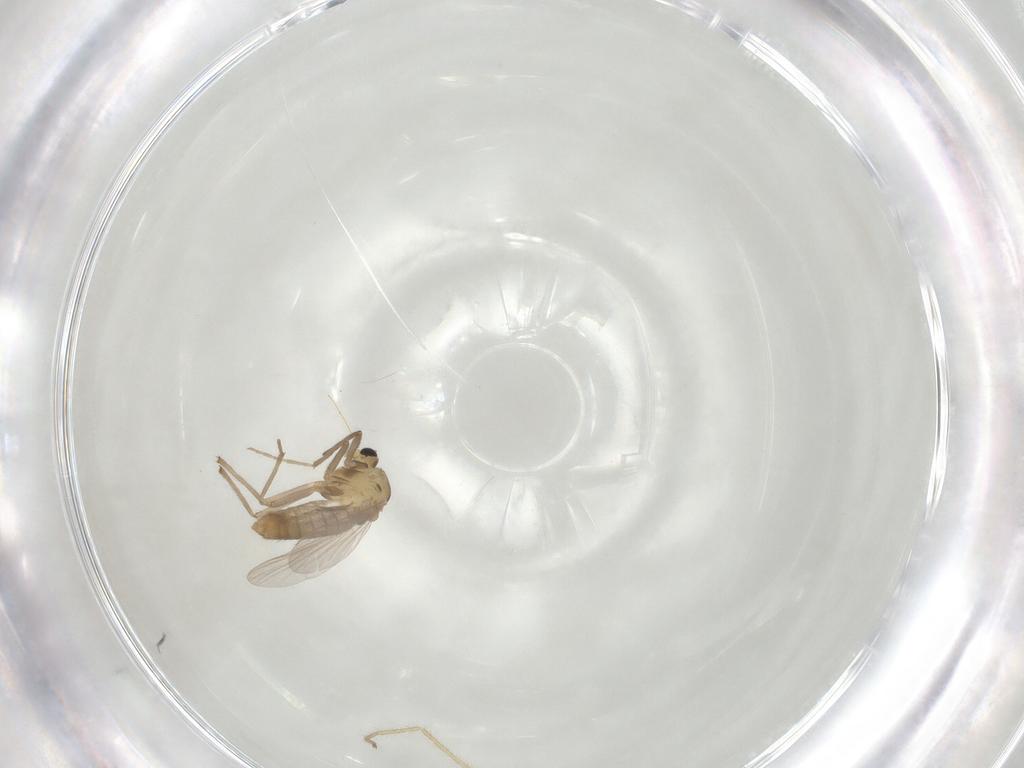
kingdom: Animalia
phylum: Arthropoda
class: Insecta
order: Diptera
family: Chironomidae
